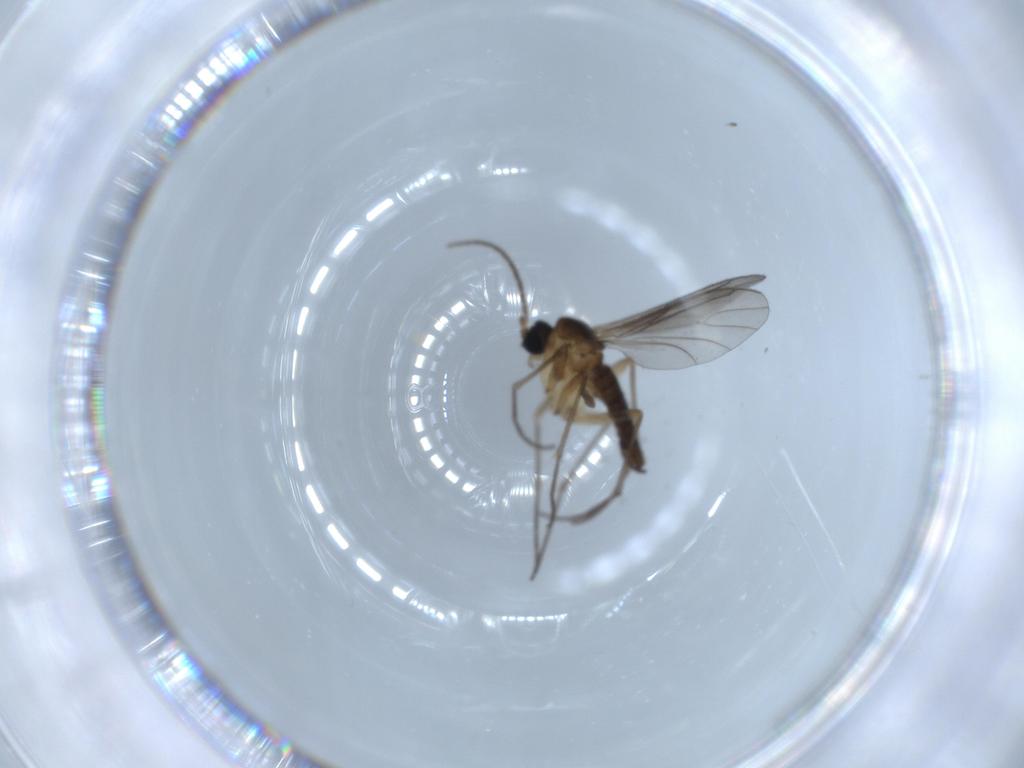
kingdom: Animalia
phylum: Arthropoda
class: Insecta
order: Diptera
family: Sciaridae
